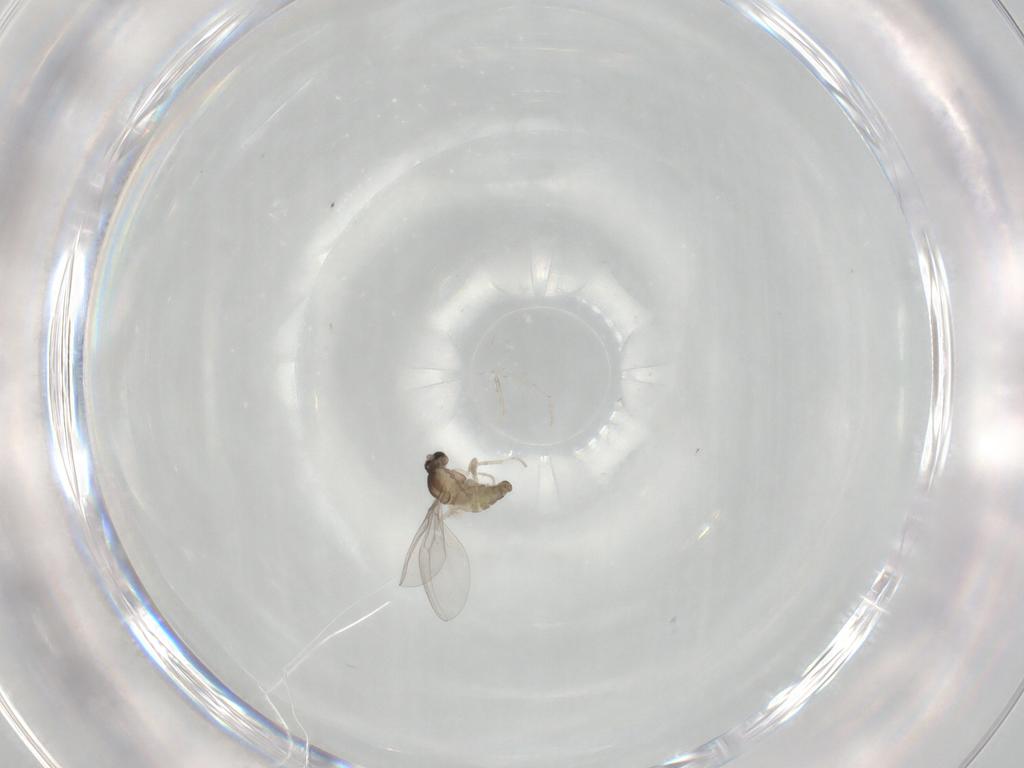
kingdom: Animalia
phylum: Arthropoda
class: Insecta
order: Diptera
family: Cecidomyiidae
